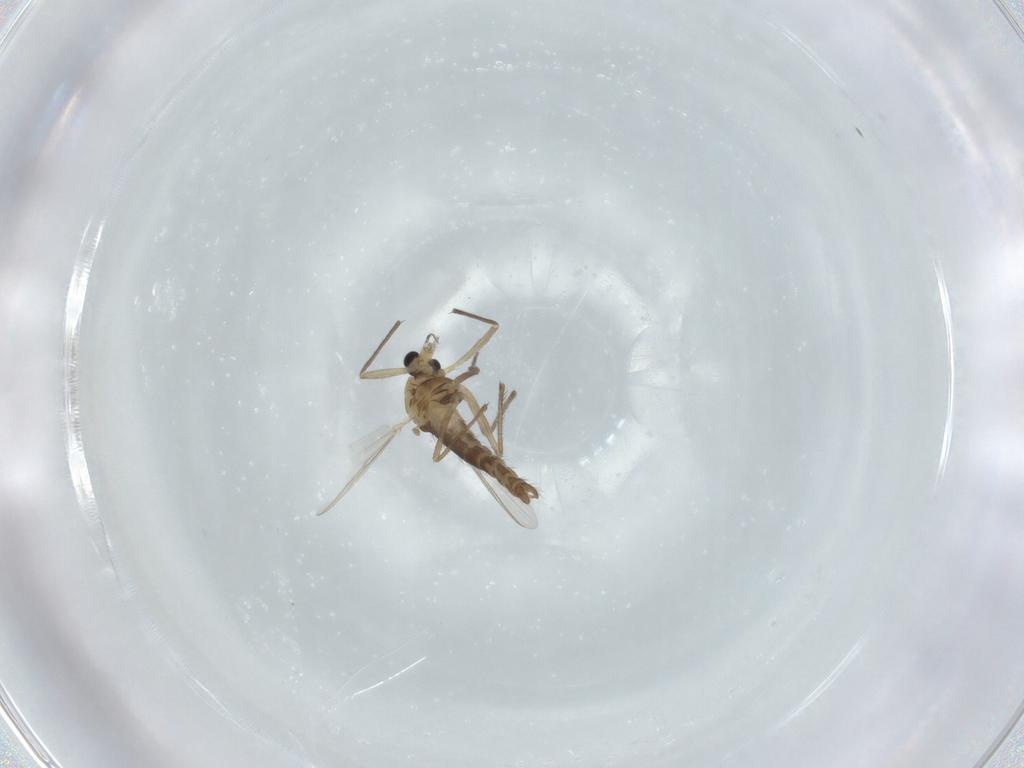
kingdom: Animalia
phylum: Arthropoda
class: Insecta
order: Diptera
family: Chironomidae
